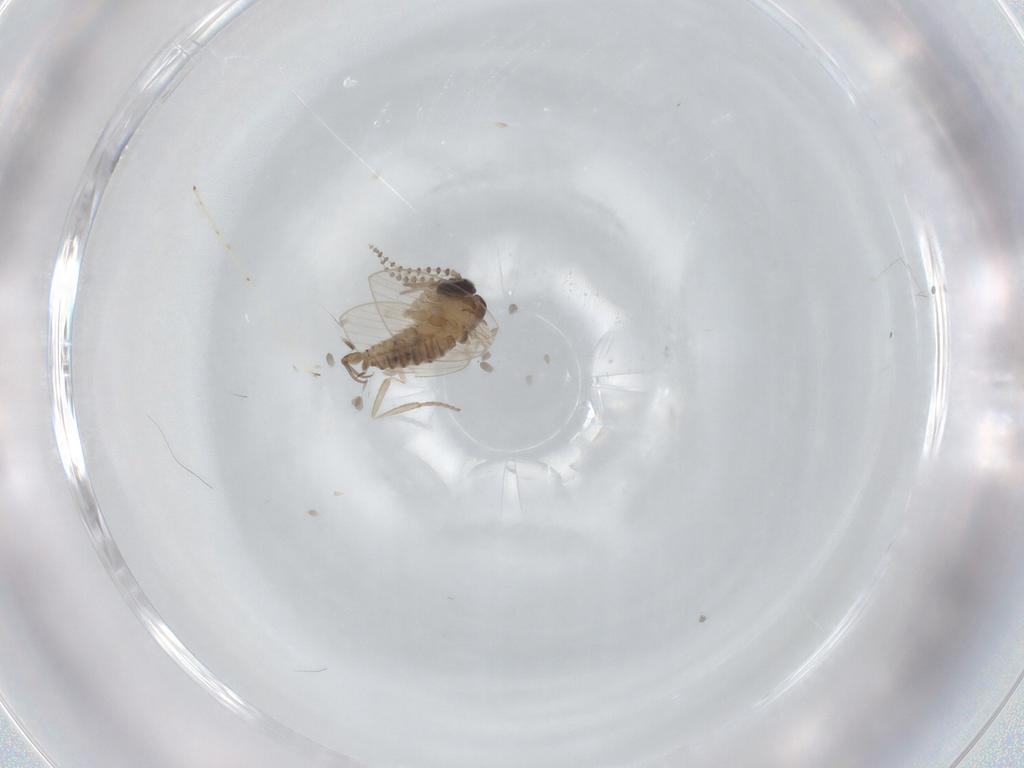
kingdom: Animalia
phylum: Arthropoda
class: Insecta
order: Diptera
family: Psychodidae
